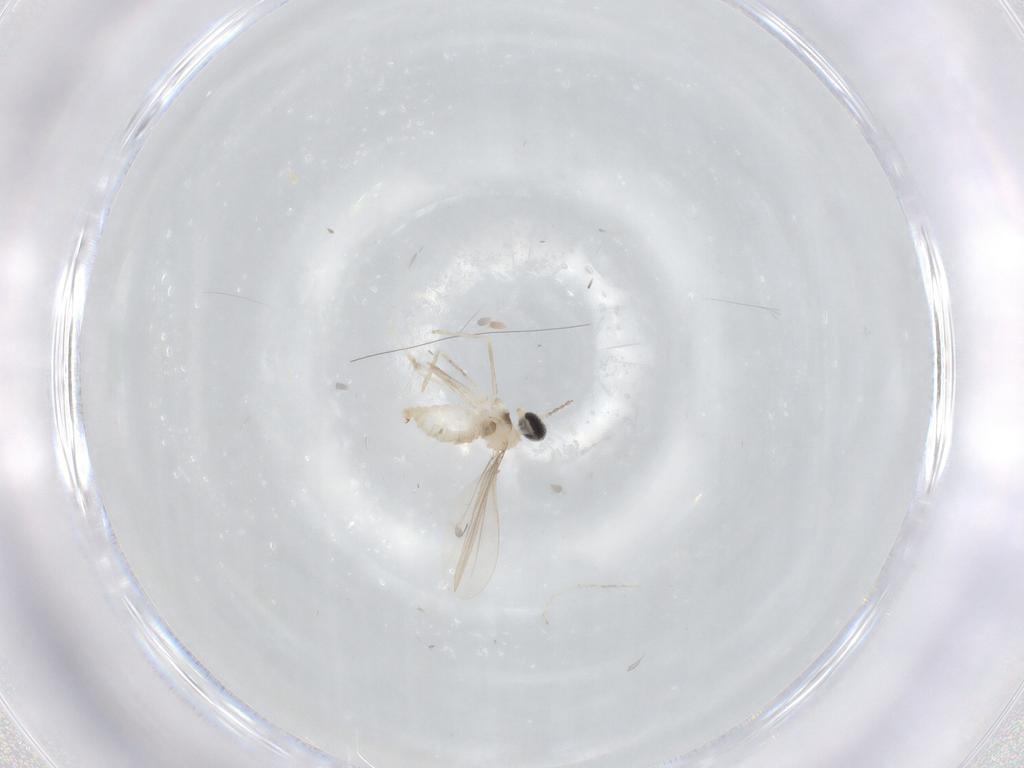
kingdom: Animalia
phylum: Arthropoda
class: Insecta
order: Diptera
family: Cecidomyiidae
